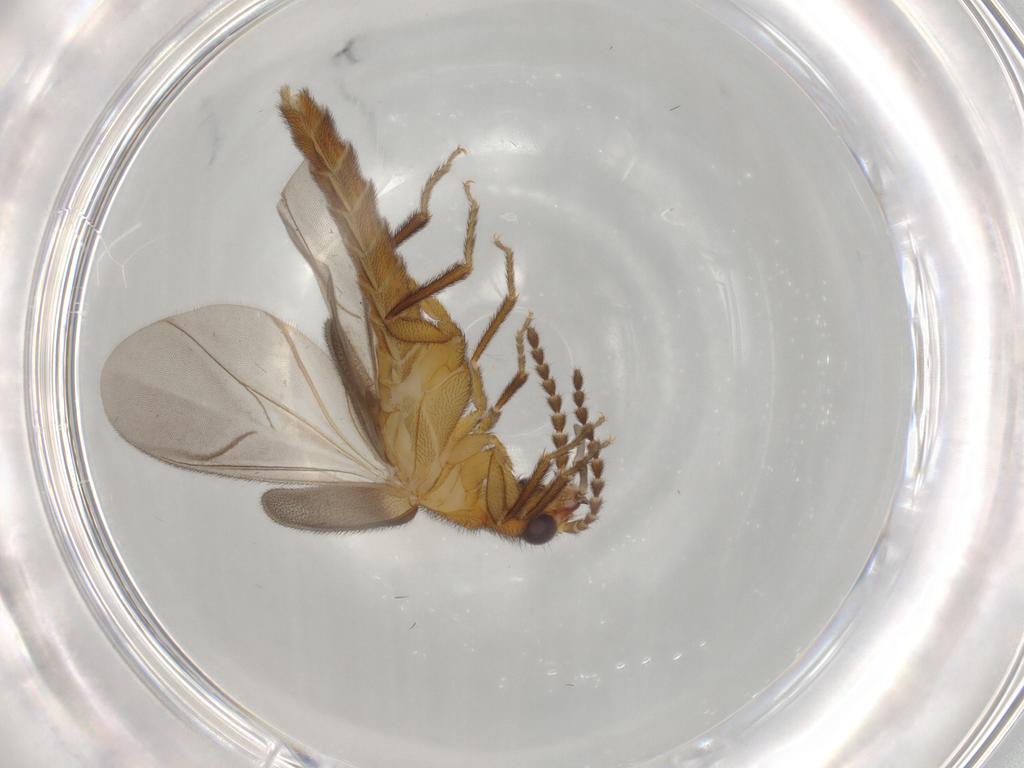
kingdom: Animalia
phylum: Arthropoda
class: Insecta
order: Coleoptera
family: Omethidae
